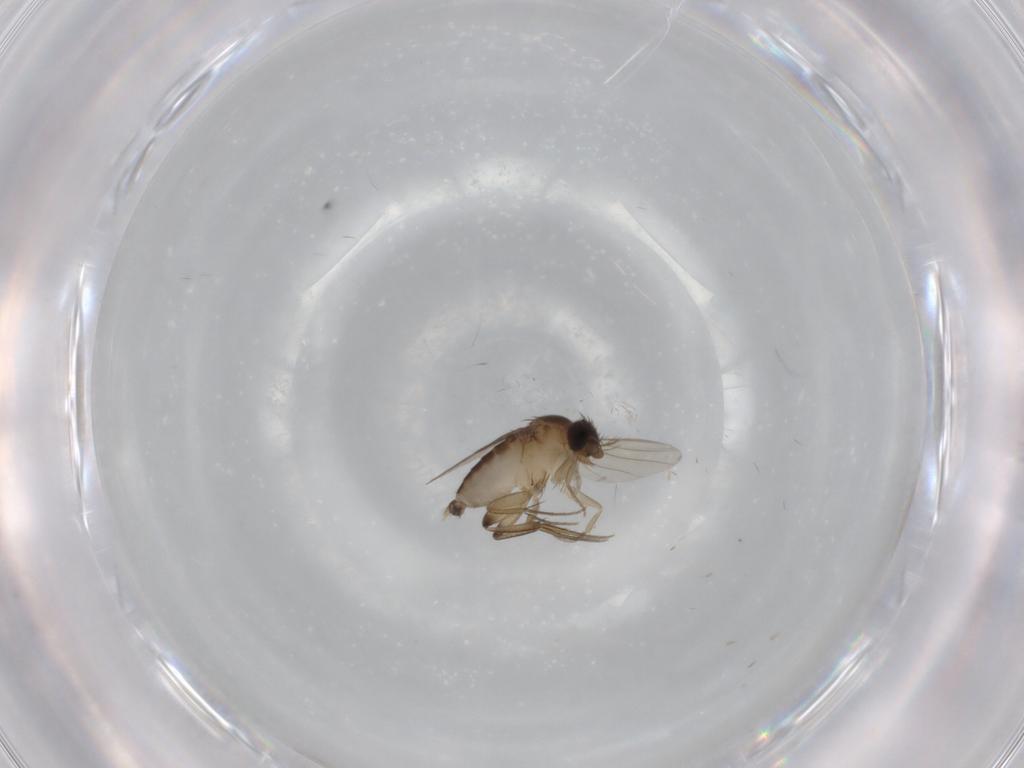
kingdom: Animalia
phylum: Arthropoda
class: Insecta
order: Diptera
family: Phoridae
